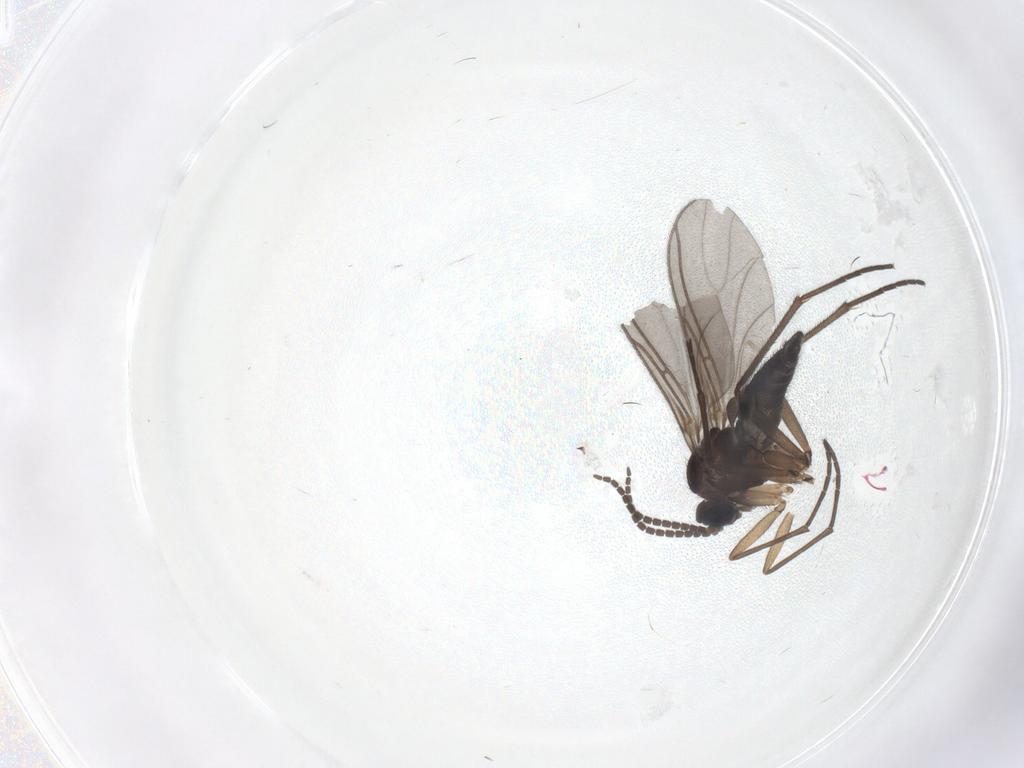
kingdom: Animalia
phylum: Arthropoda
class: Insecta
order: Diptera
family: Sciaridae
